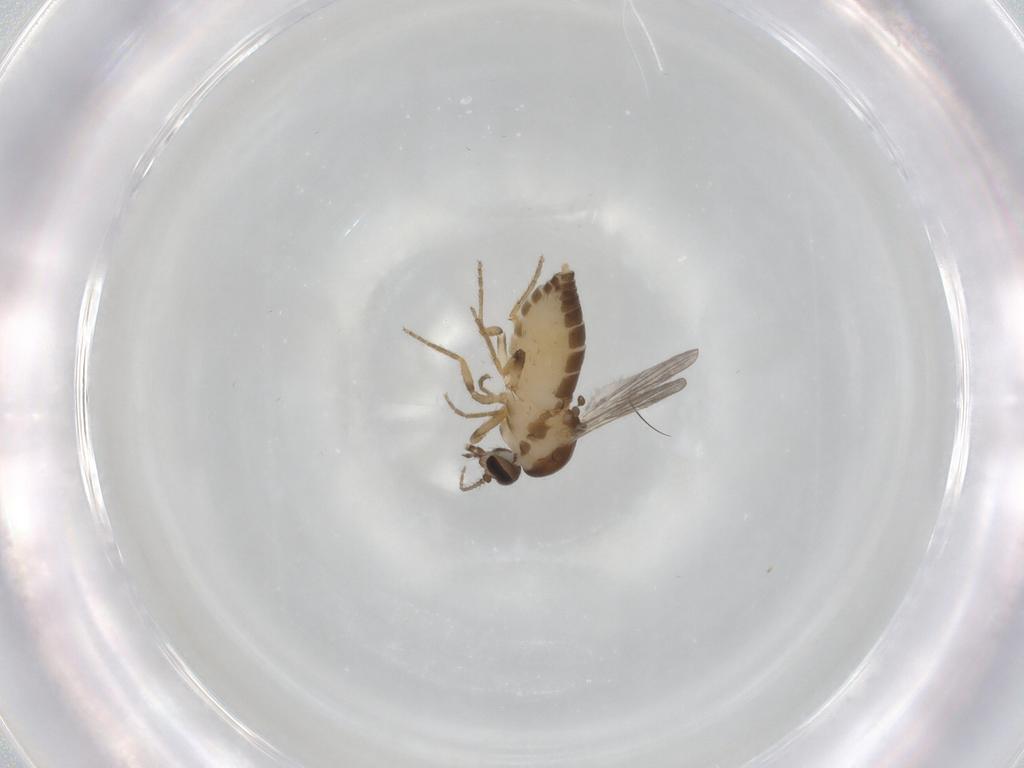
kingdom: Animalia
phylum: Arthropoda
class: Insecta
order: Diptera
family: Ceratopogonidae
